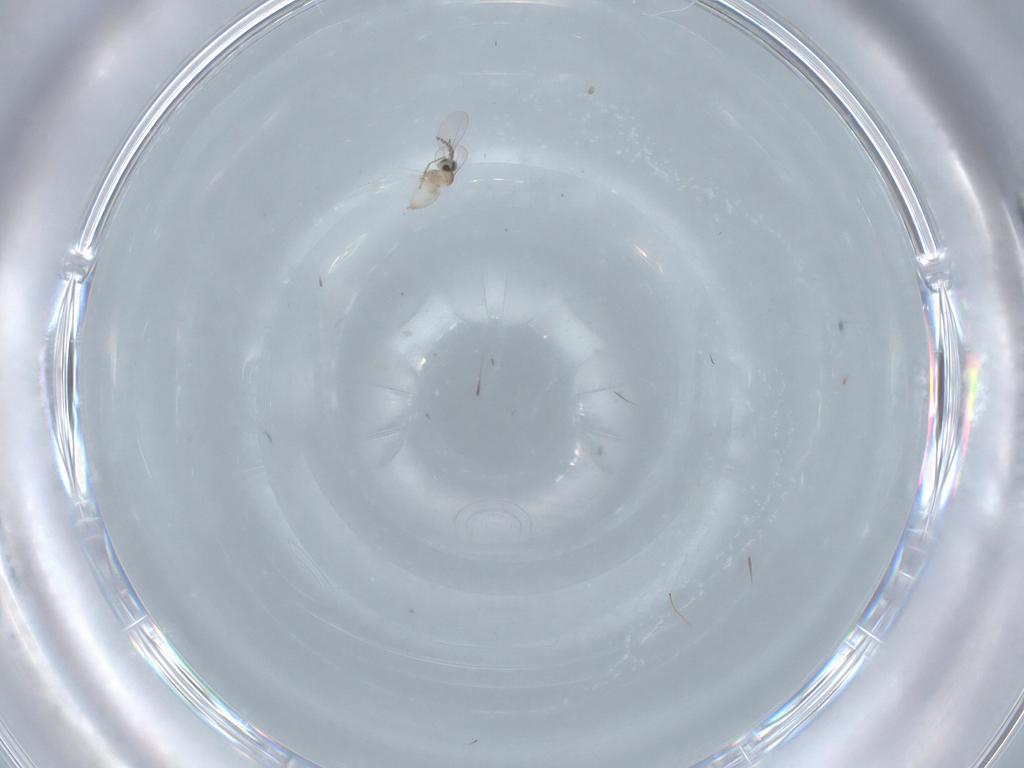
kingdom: Animalia
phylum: Arthropoda
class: Insecta
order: Diptera
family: Cecidomyiidae
